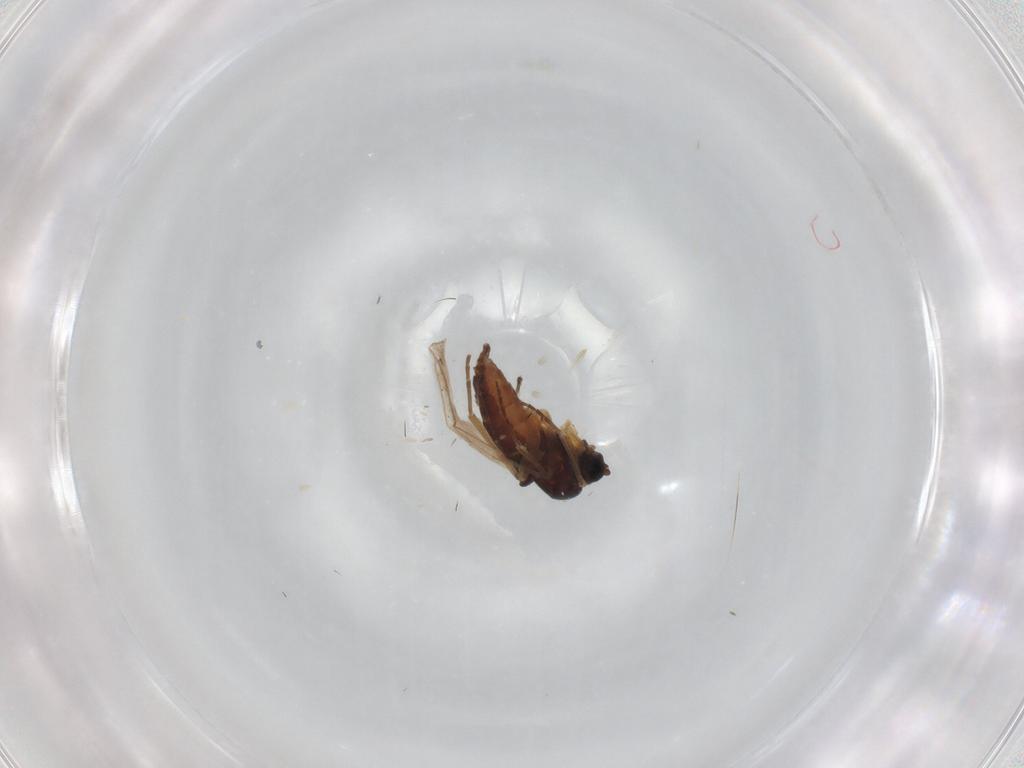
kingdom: Animalia
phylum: Arthropoda
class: Insecta
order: Diptera
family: Sciaridae
